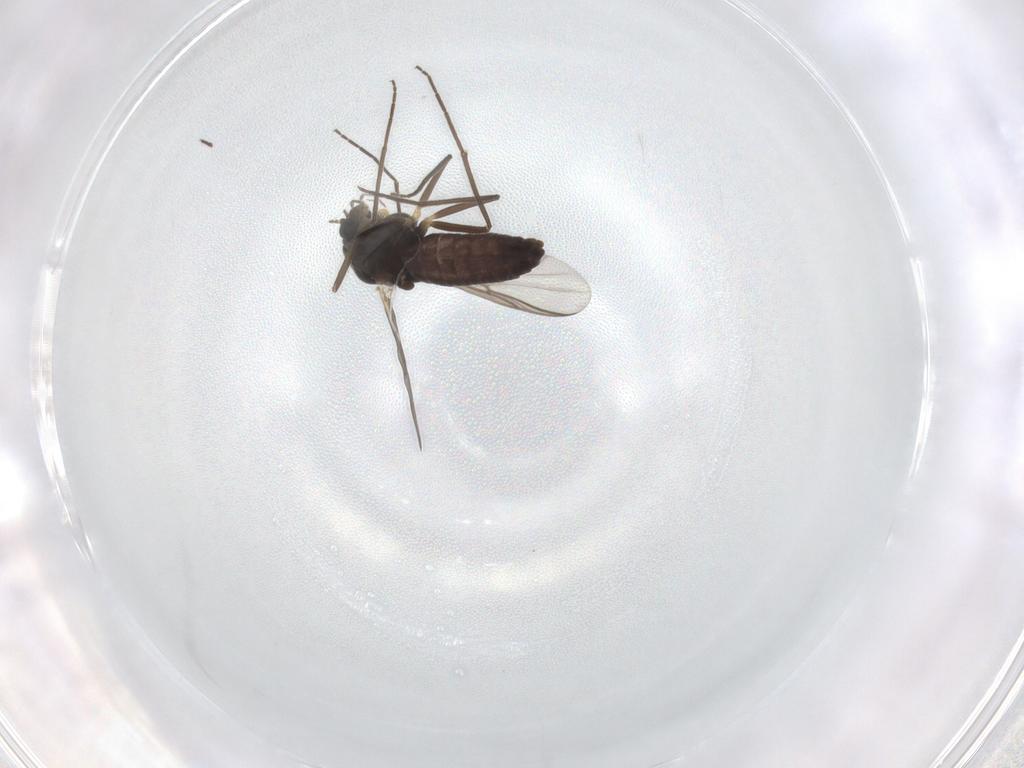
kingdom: Animalia
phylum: Arthropoda
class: Insecta
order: Diptera
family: Chironomidae
